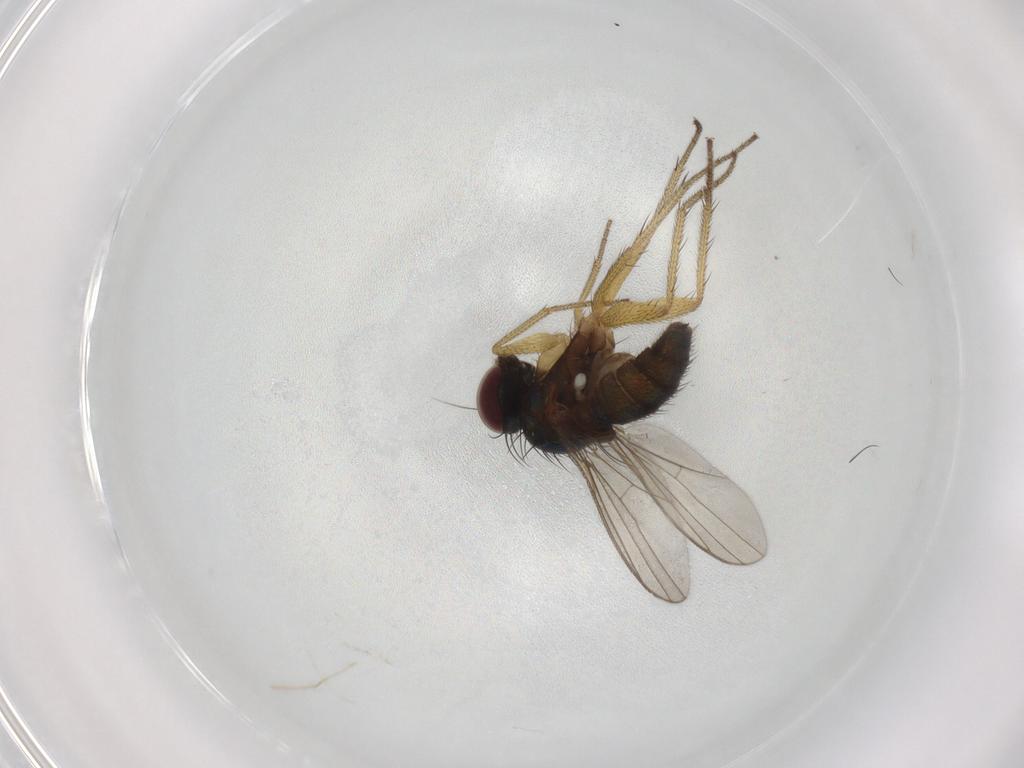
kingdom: Animalia
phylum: Arthropoda
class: Insecta
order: Diptera
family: Dolichopodidae
